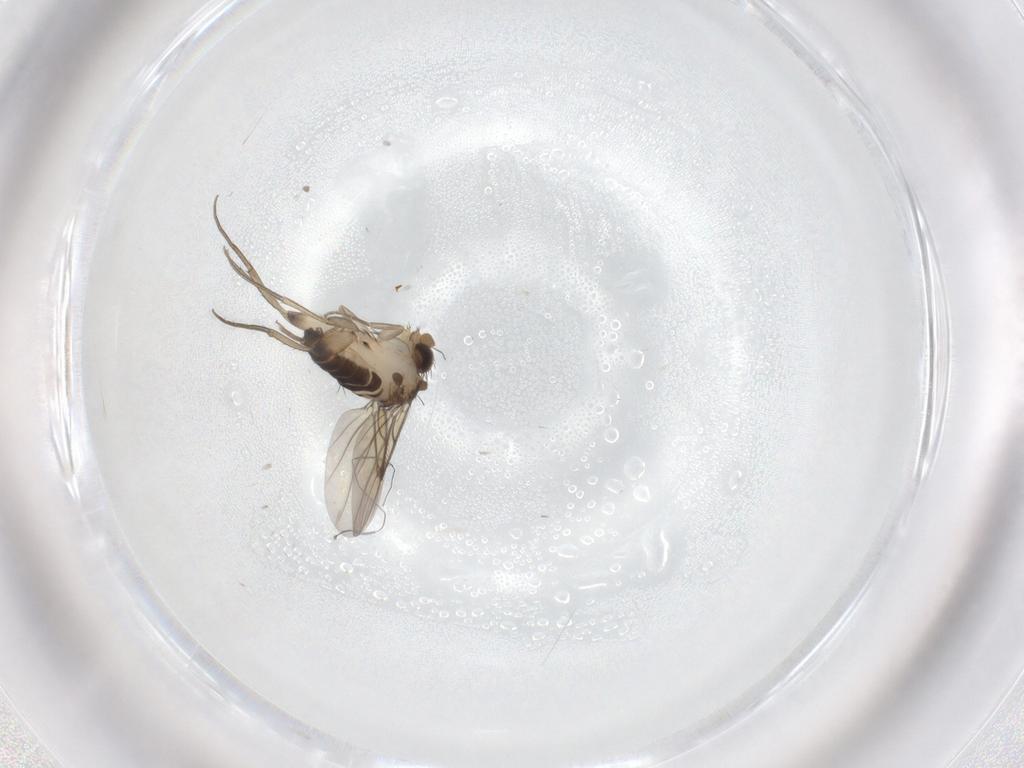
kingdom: Animalia
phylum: Arthropoda
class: Insecta
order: Diptera
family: Phoridae
